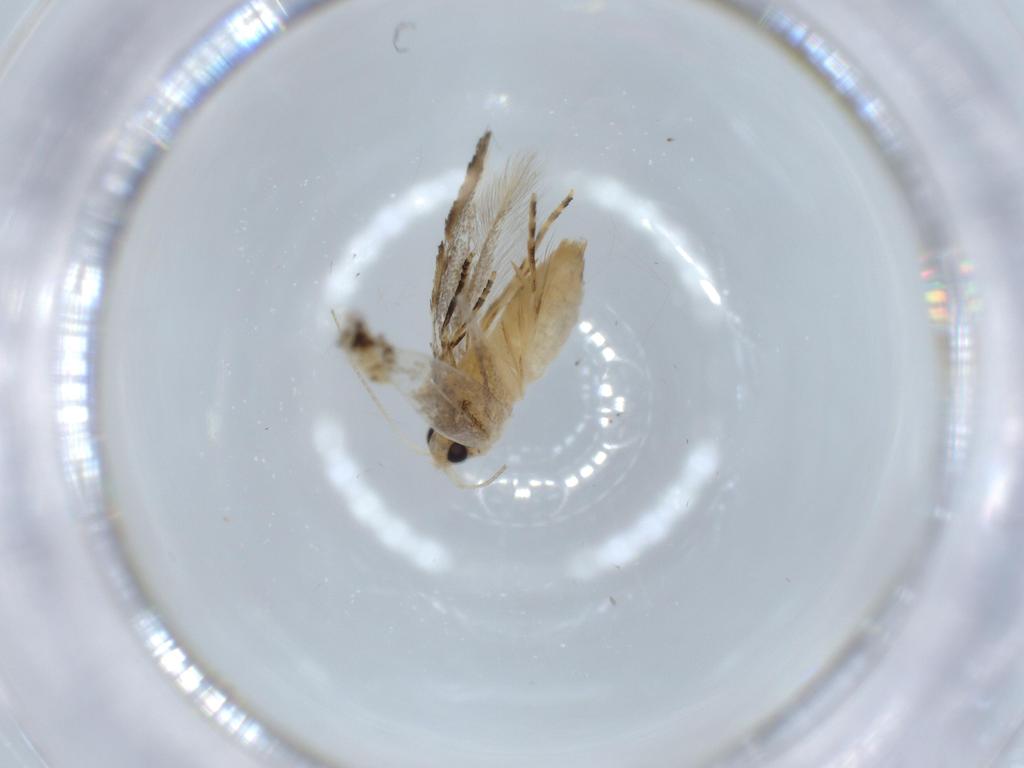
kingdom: Animalia
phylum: Arthropoda
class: Insecta
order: Lepidoptera
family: Bucculatricidae
